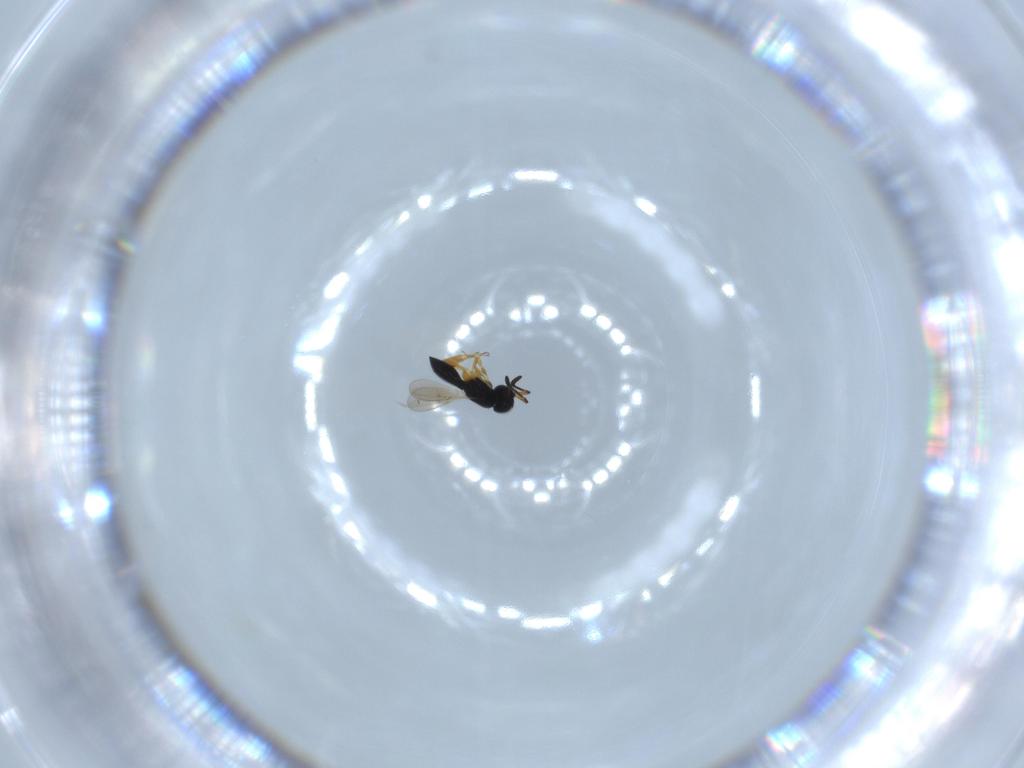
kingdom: Animalia
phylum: Arthropoda
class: Insecta
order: Hymenoptera
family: Scelionidae
